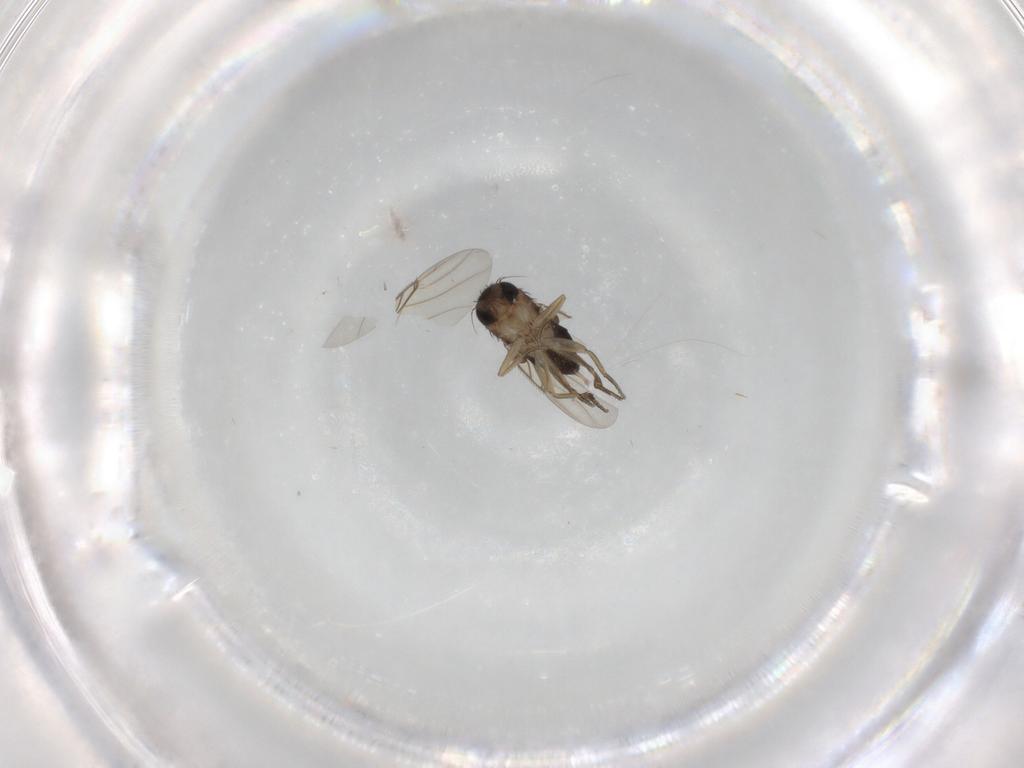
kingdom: Animalia
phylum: Arthropoda
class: Insecta
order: Diptera
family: Phoridae
